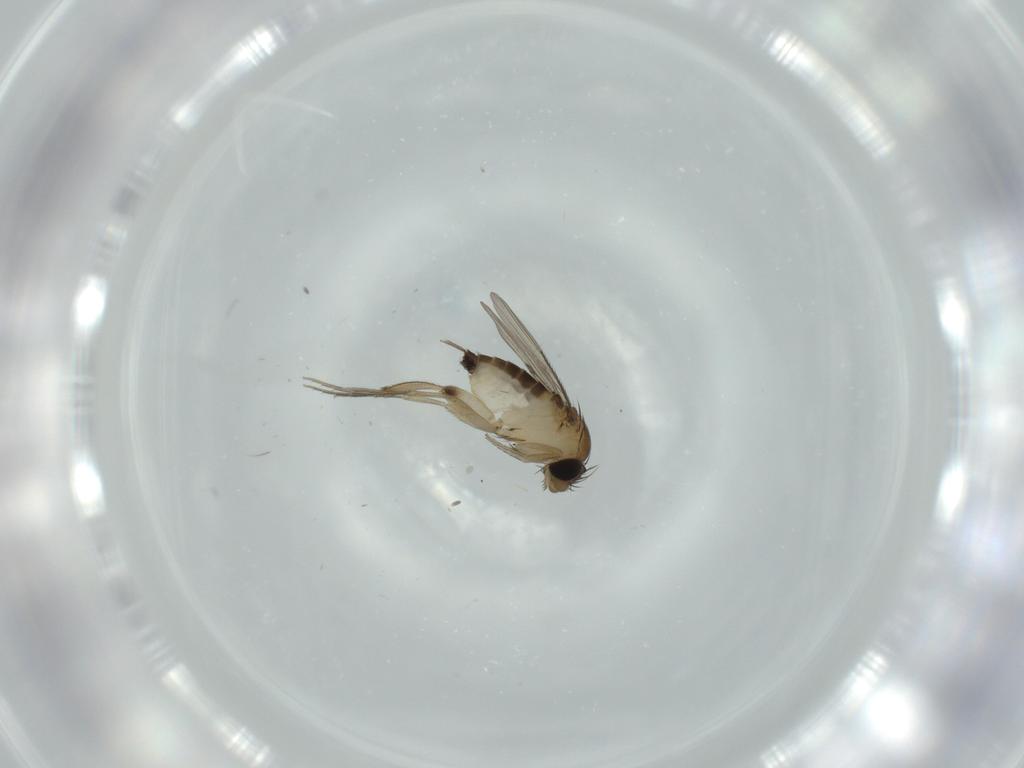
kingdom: Animalia
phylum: Arthropoda
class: Insecta
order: Diptera
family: Phoridae
